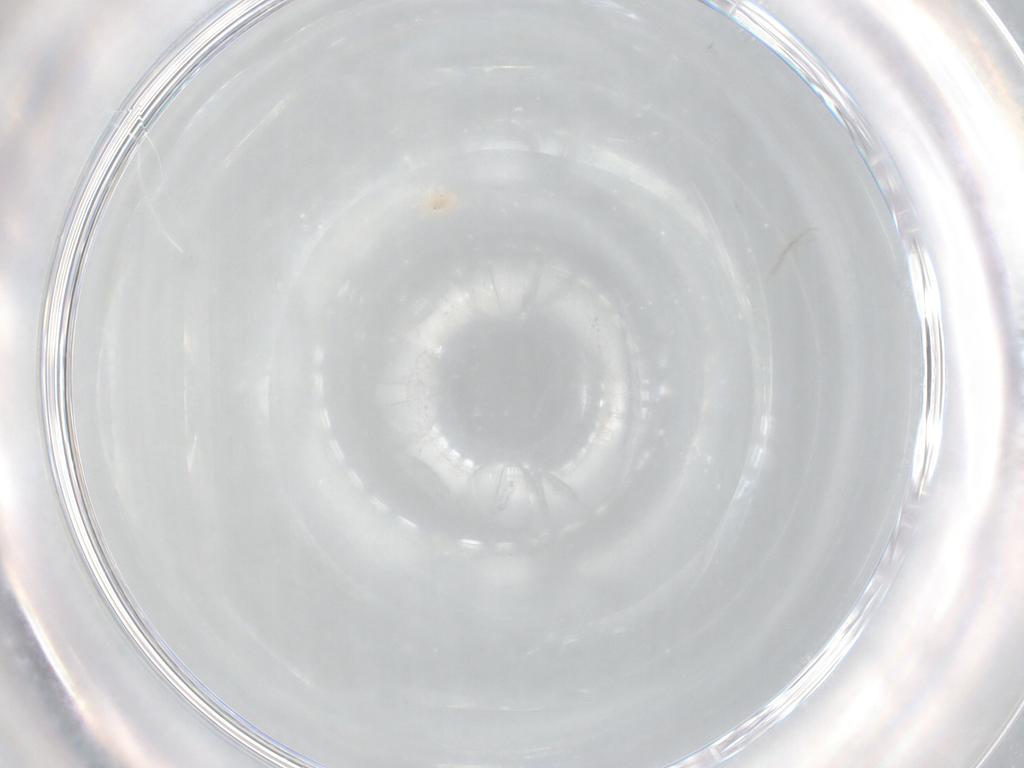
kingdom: Animalia
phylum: Arthropoda
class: Arachnida
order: Trombidiformes
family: Bdellidae
